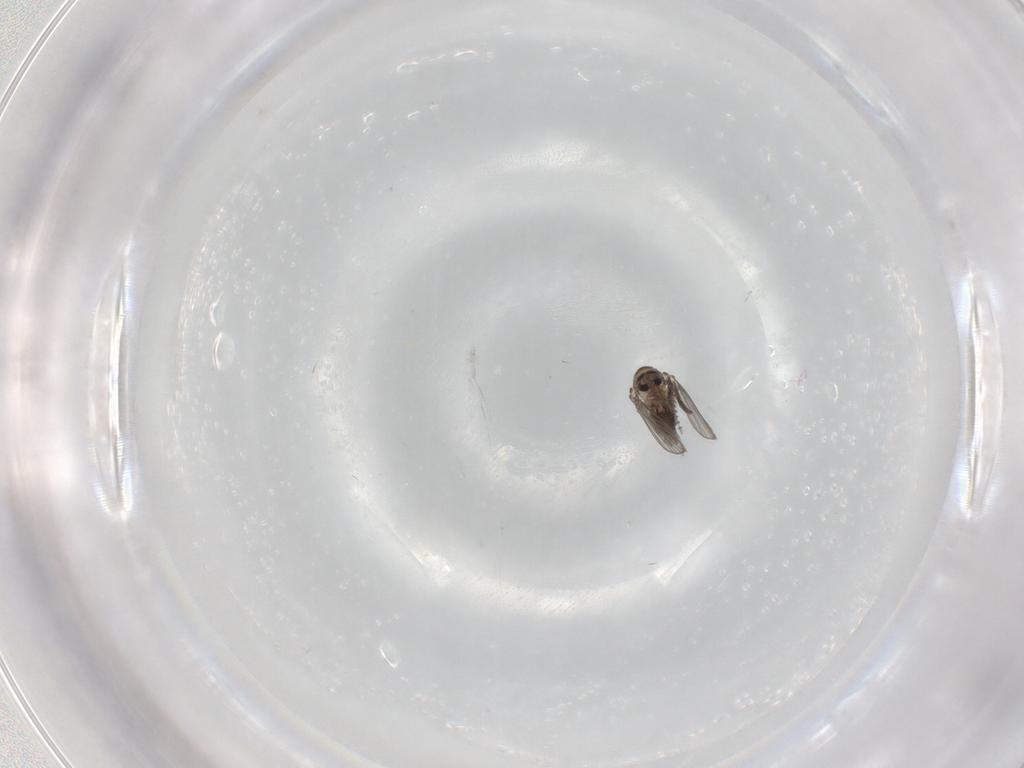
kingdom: Animalia
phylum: Arthropoda
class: Insecta
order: Diptera
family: Psychodidae
